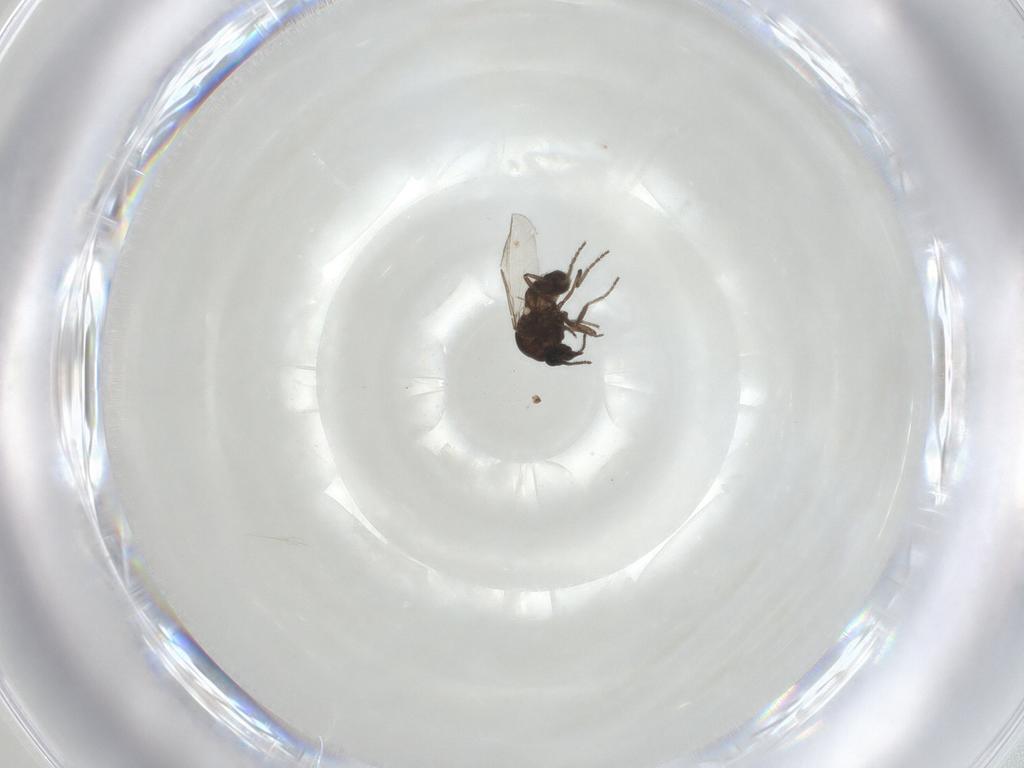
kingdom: Animalia
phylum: Arthropoda
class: Insecta
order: Diptera
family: Ceratopogonidae
